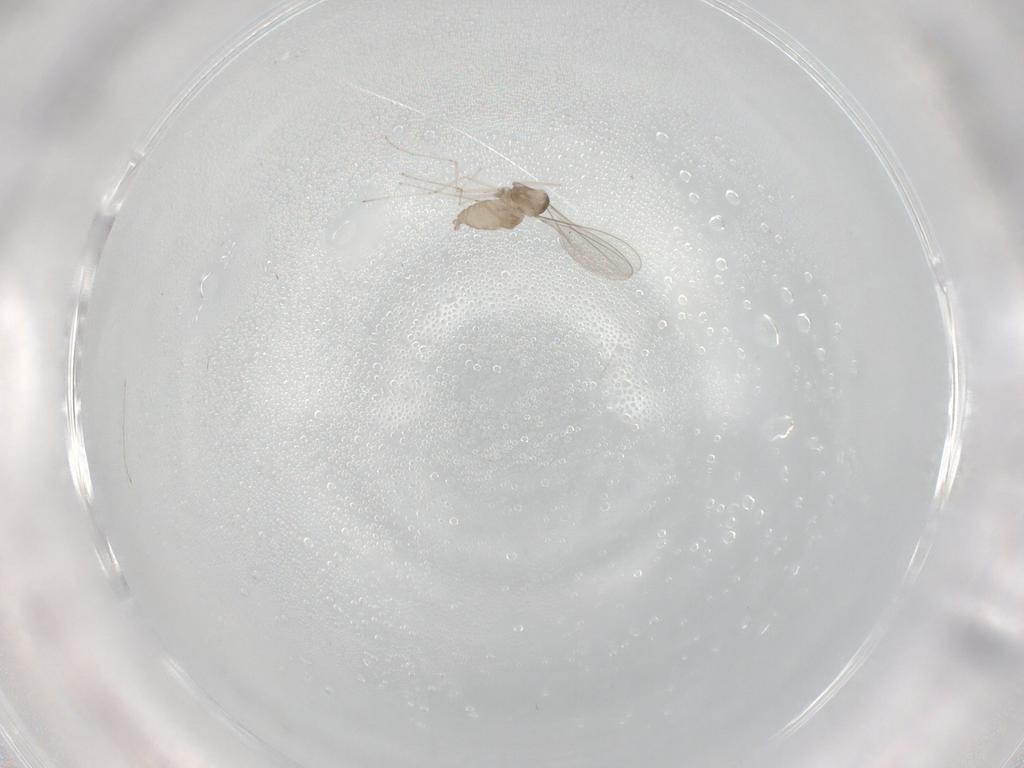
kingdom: Animalia
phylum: Arthropoda
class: Insecta
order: Diptera
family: Cecidomyiidae
